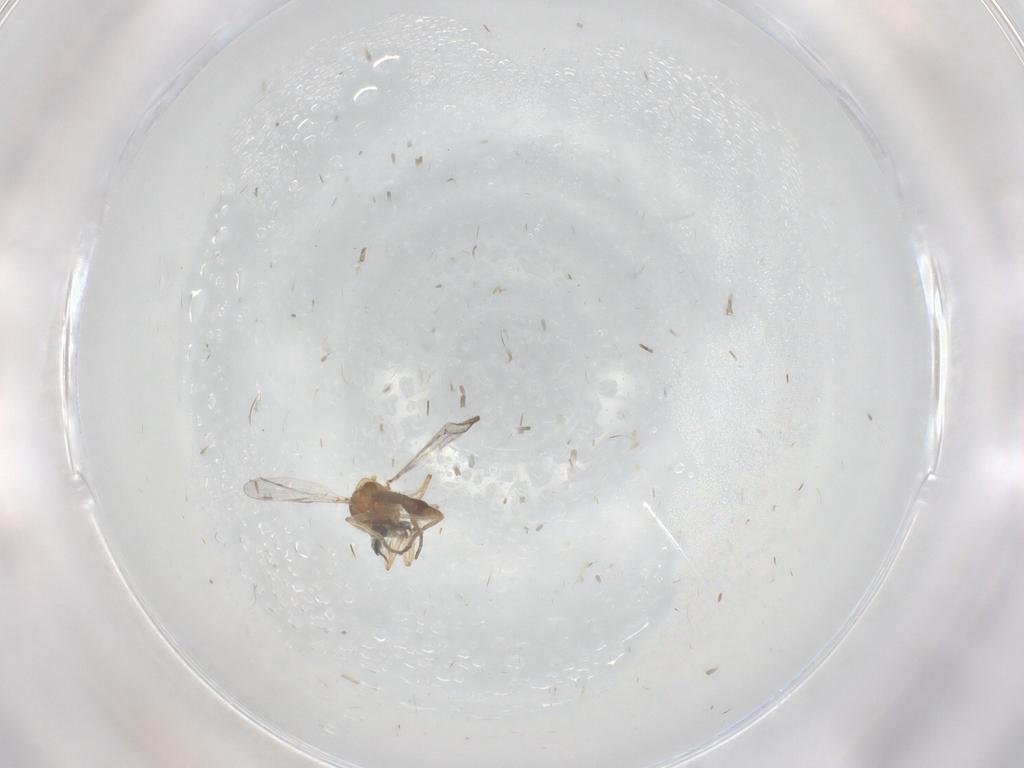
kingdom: Animalia
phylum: Arthropoda
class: Insecta
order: Diptera
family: Ceratopogonidae
